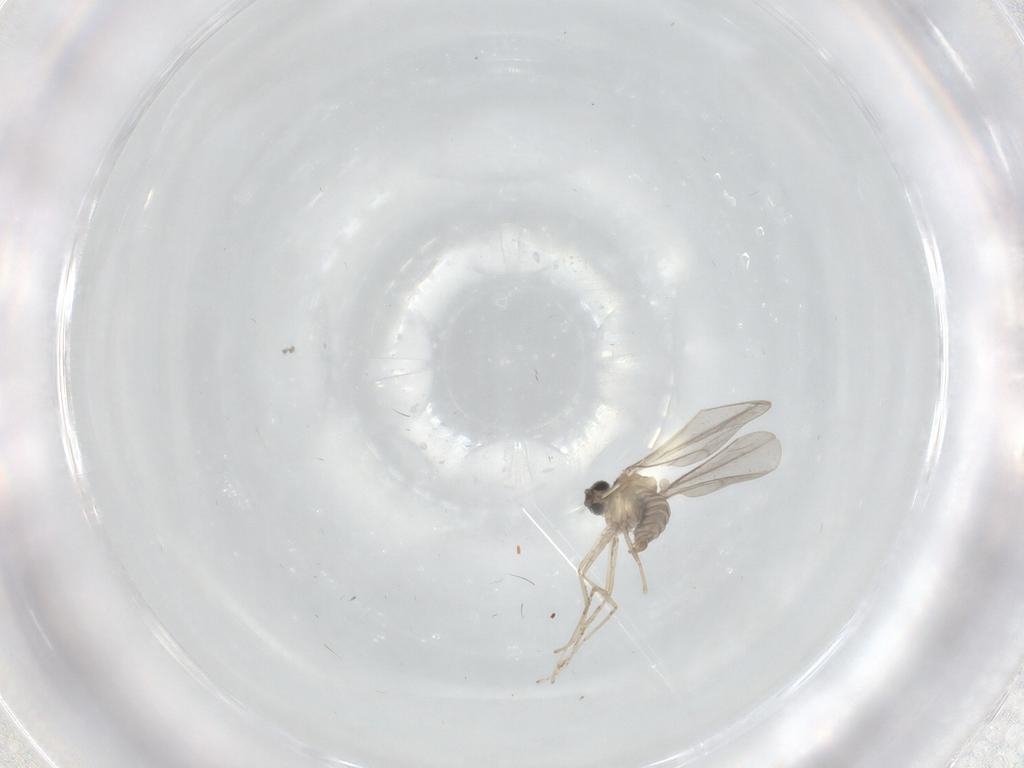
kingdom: Animalia
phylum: Arthropoda
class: Insecta
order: Diptera
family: Cecidomyiidae
